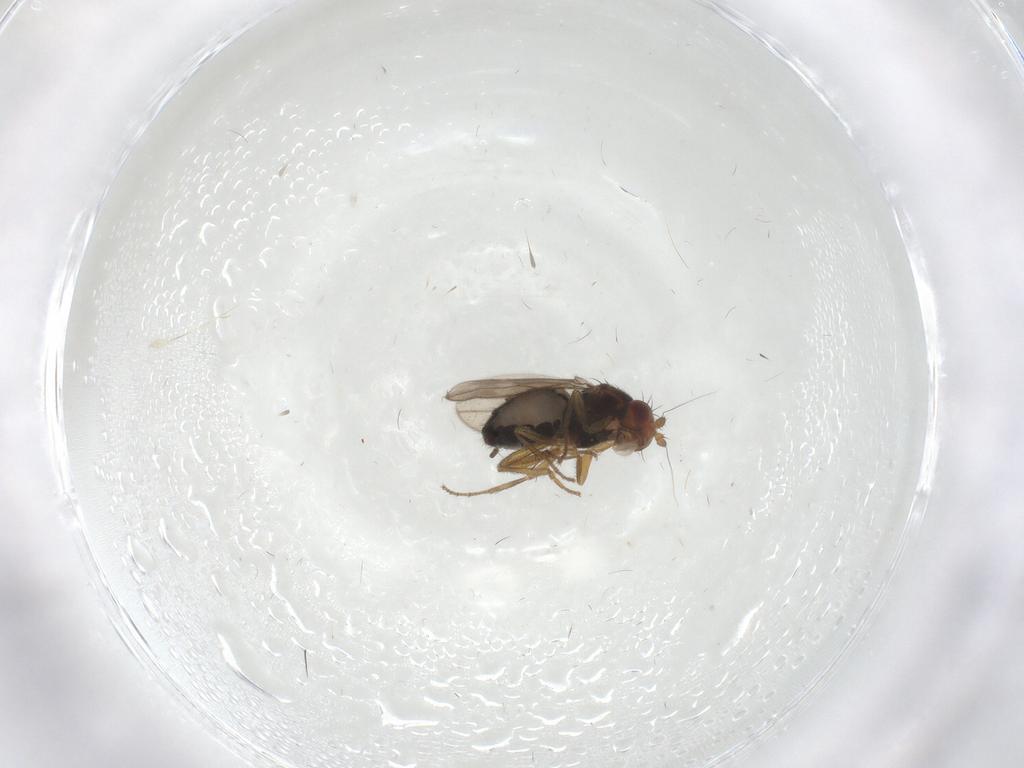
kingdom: Animalia
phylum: Arthropoda
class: Insecta
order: Diptera
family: Sphaeroceridae
